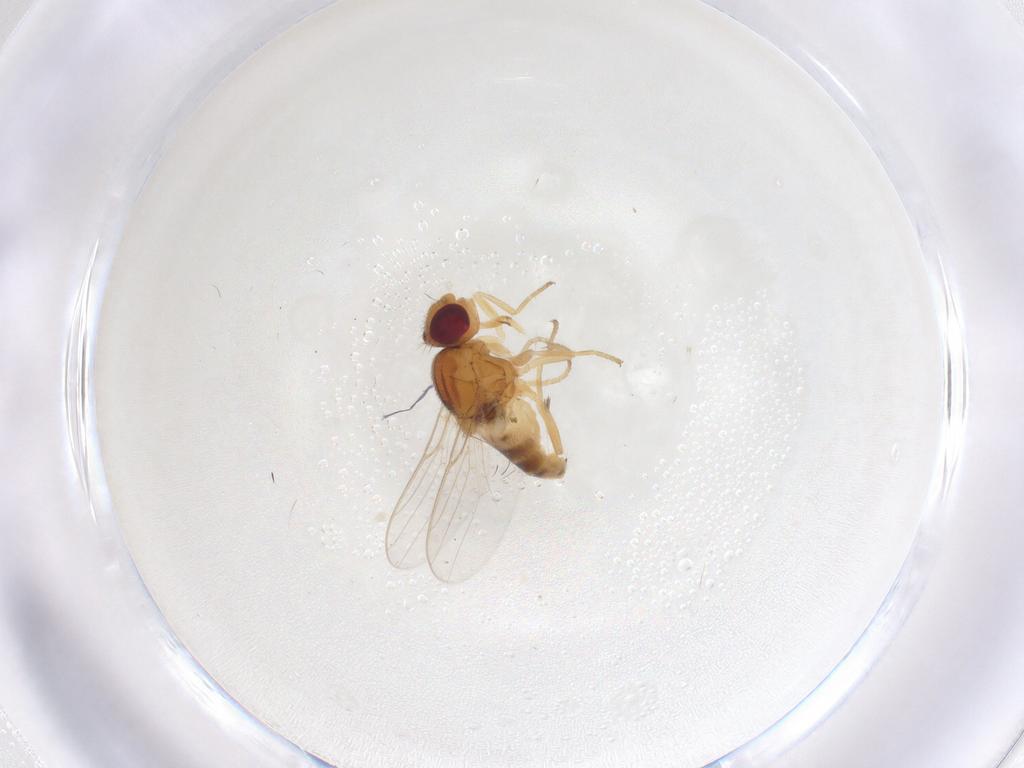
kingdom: Animalia
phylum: Arthropoda
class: Insecta
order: Diptera
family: Chloropidae
